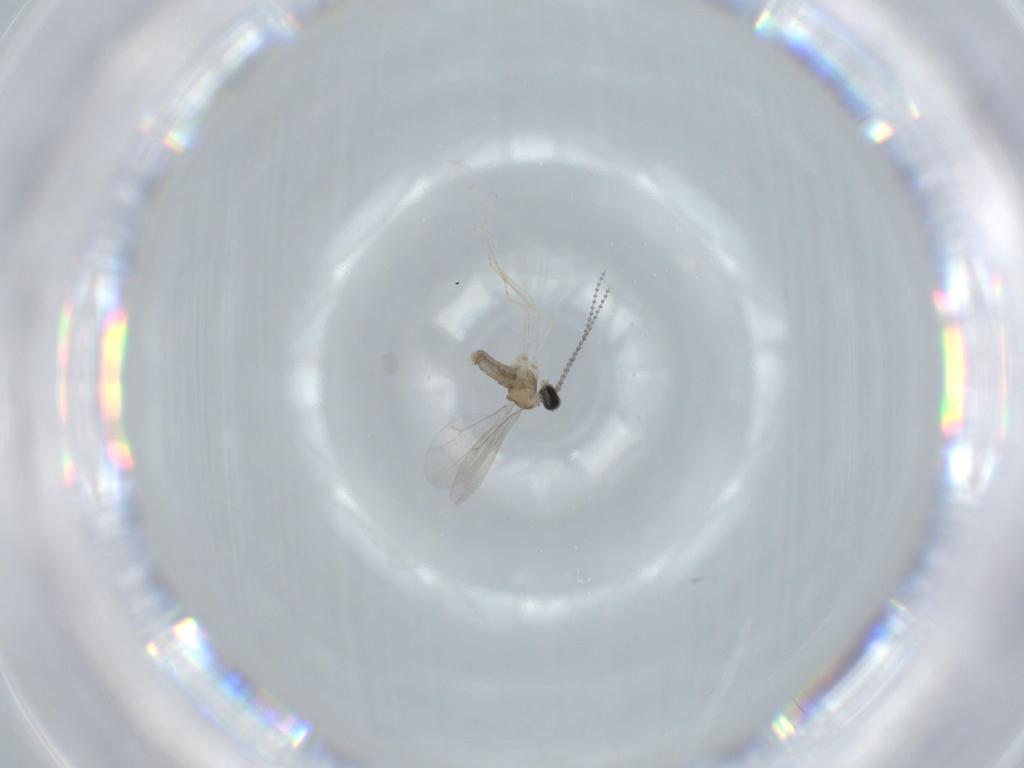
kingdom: Animalia
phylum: Arthropoda
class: Insecta
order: Diptera
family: Cecidomyiidae
